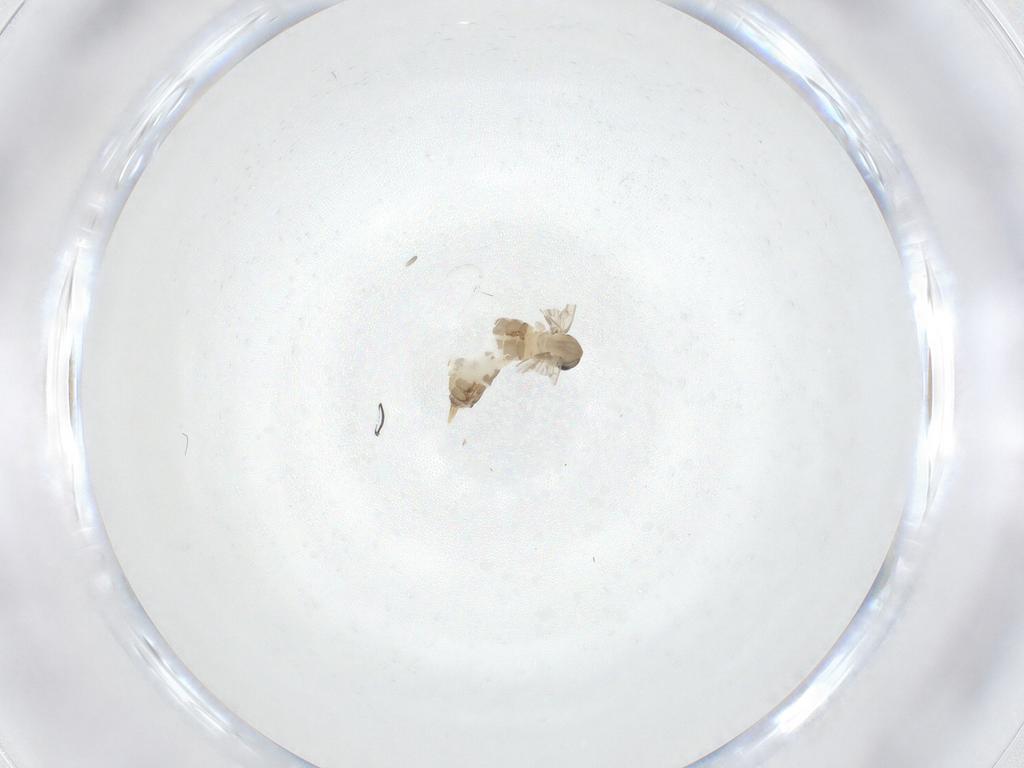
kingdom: Animalia
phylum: Arthropoda
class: Insecta
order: Diptera
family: Psychodidae
